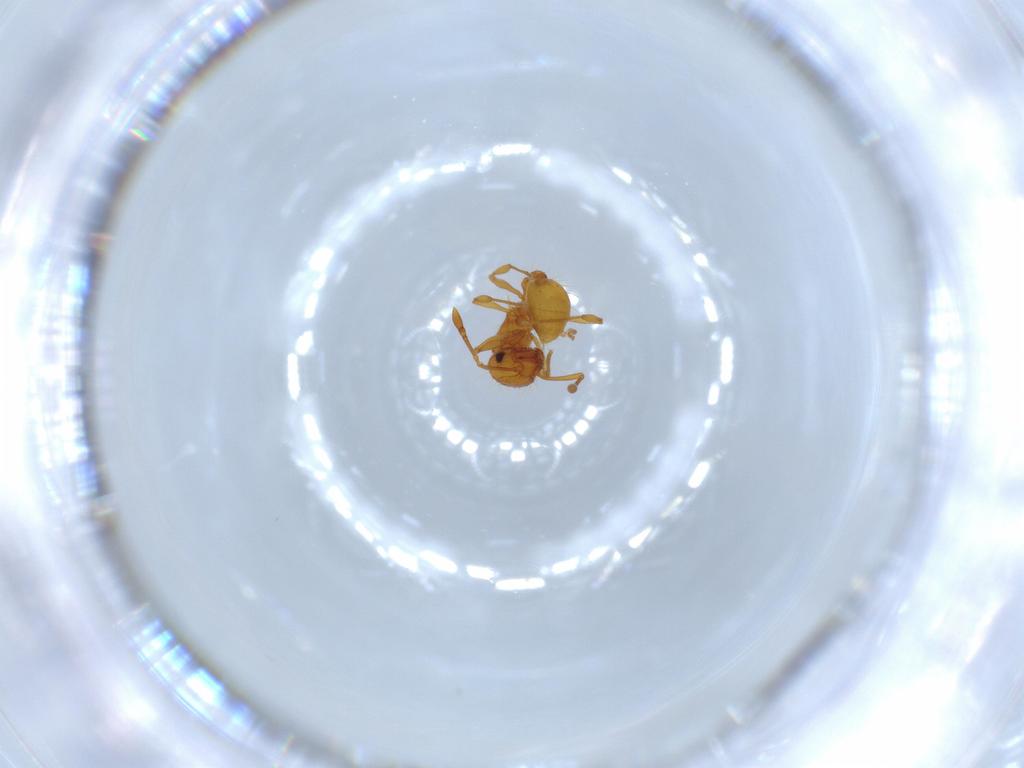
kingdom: Animalia
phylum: Arthropoda
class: Insecta
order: Hymenoptera
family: Formicidae
